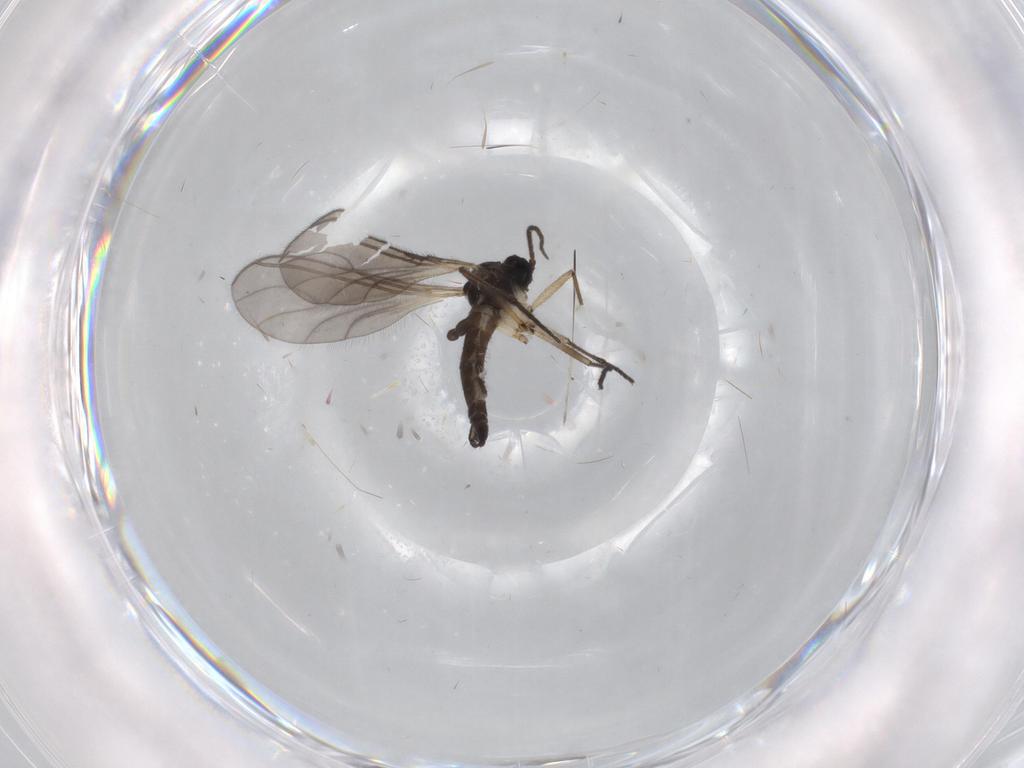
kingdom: Animalia
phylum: Arthropoda
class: Insecta
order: Diptera
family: Sciaridae
